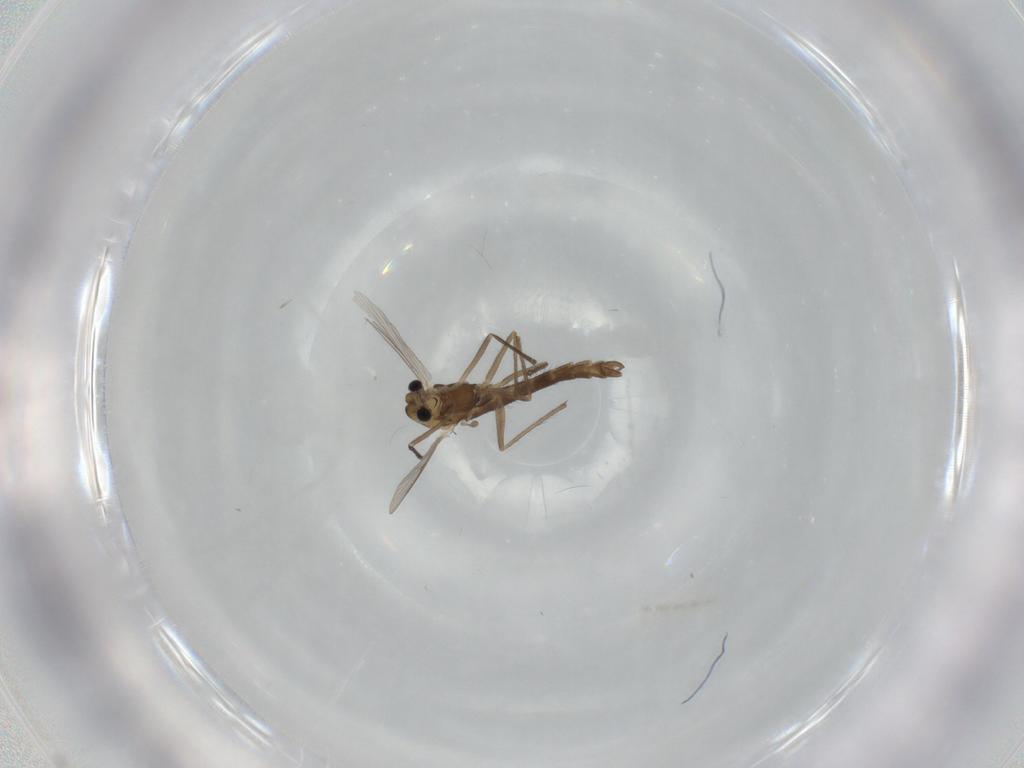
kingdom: Animalia
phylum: Arthropoda
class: Insecta
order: Diptera
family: Chironomidae
